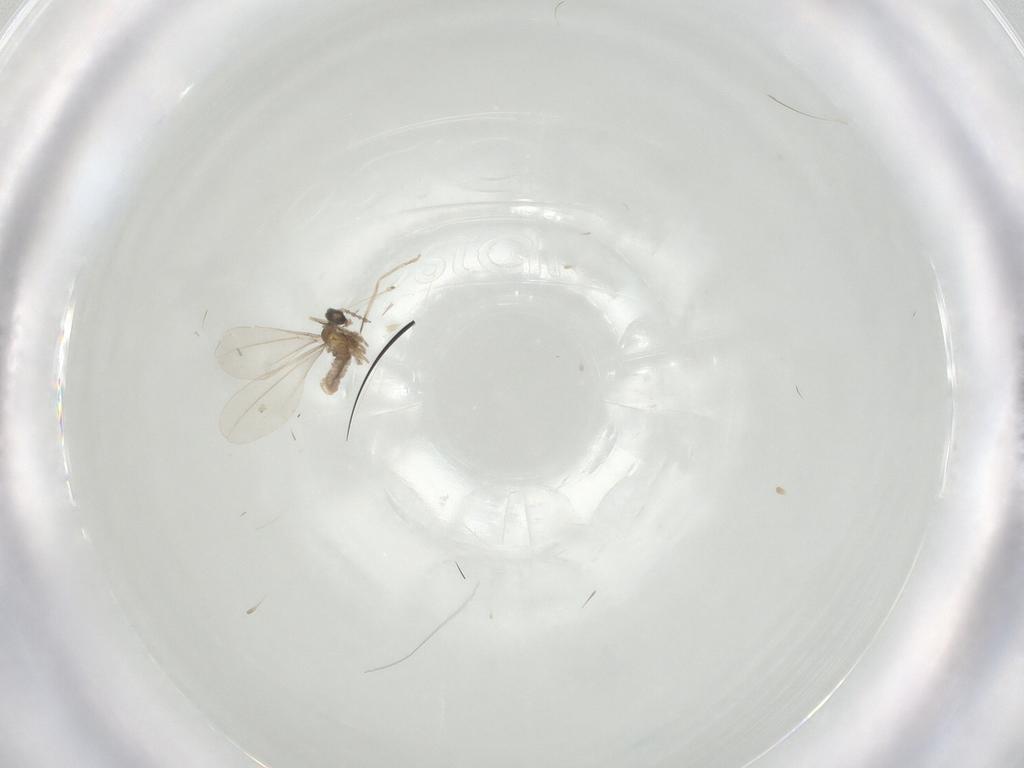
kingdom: Animalia
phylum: Arthropoda
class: Insecta
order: Diptera
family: Cecidomyiidae
